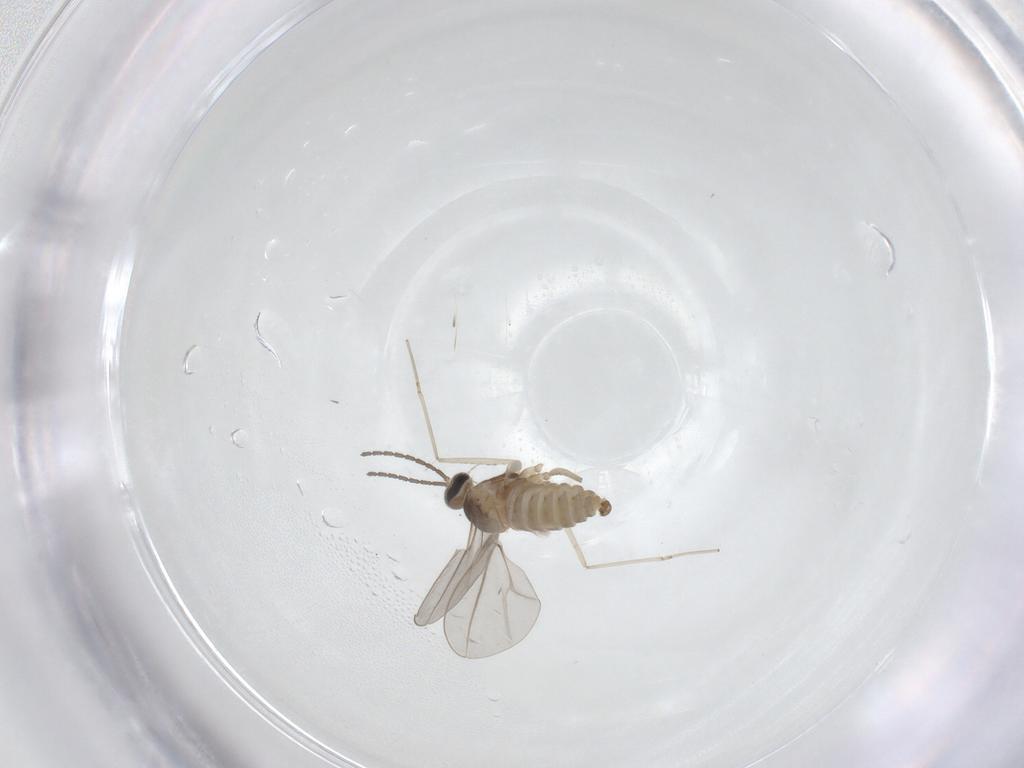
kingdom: Animalia
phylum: Arthropoda
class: Insecta
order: Diptera
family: Cecidomyiidae
